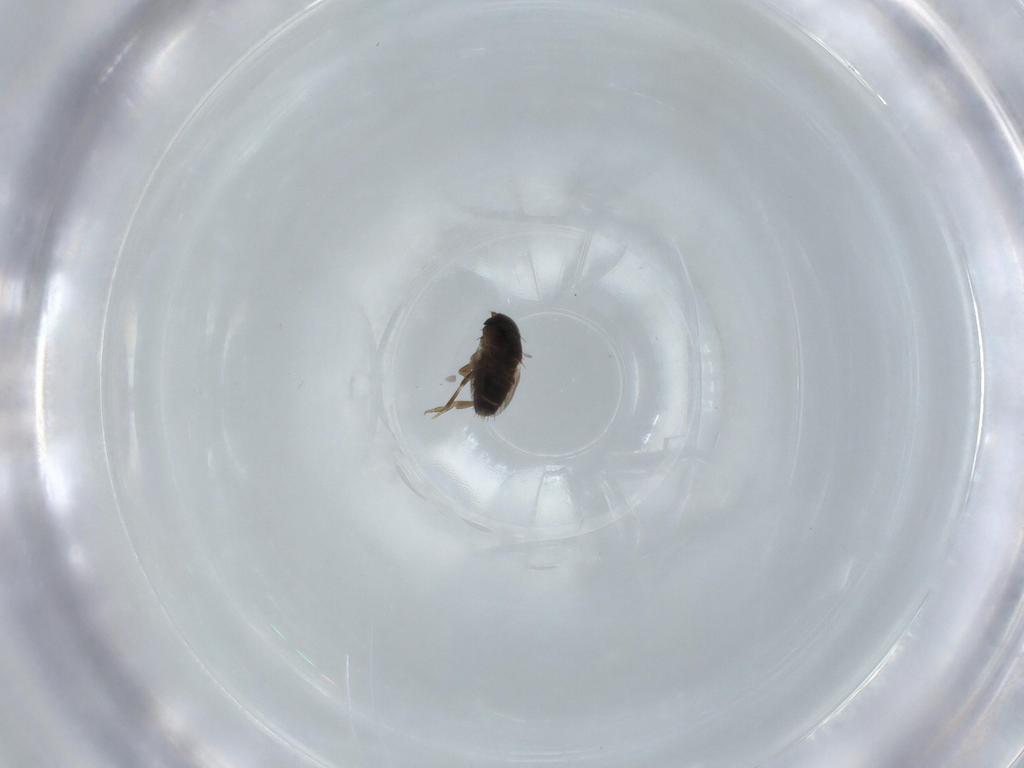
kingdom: Animalia
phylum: Arthropoda
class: Insecta
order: Diptera
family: Phoridae
